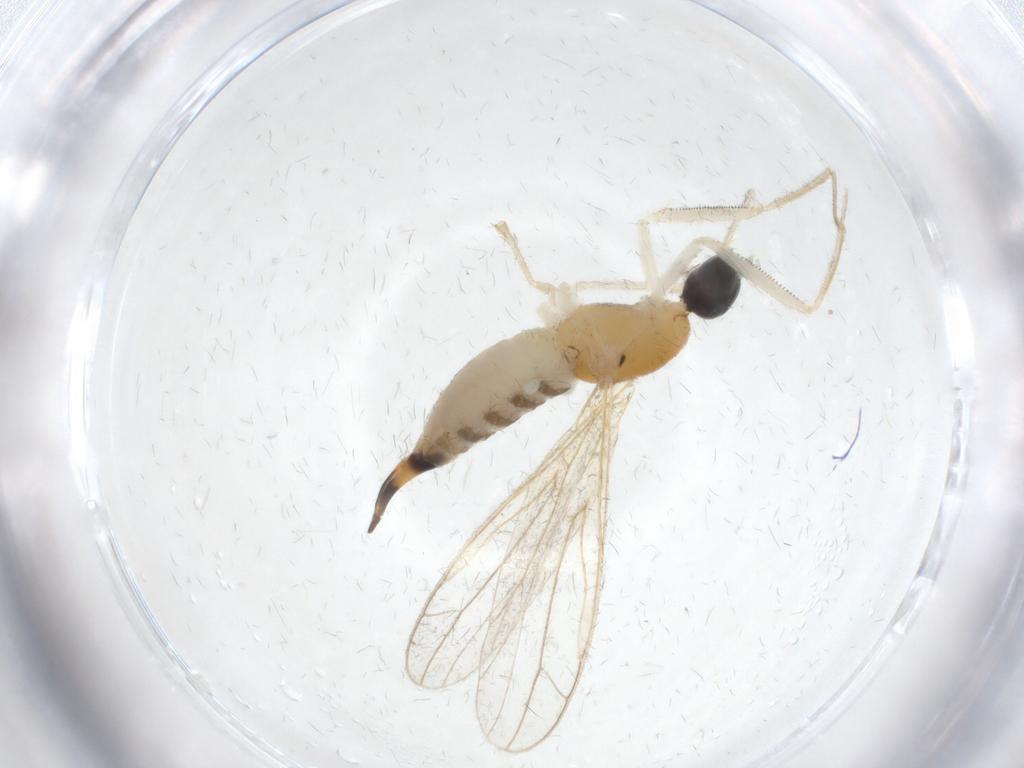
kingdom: Animalia
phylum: Arthropoda
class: Insecta
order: Diptera
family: Empididae
